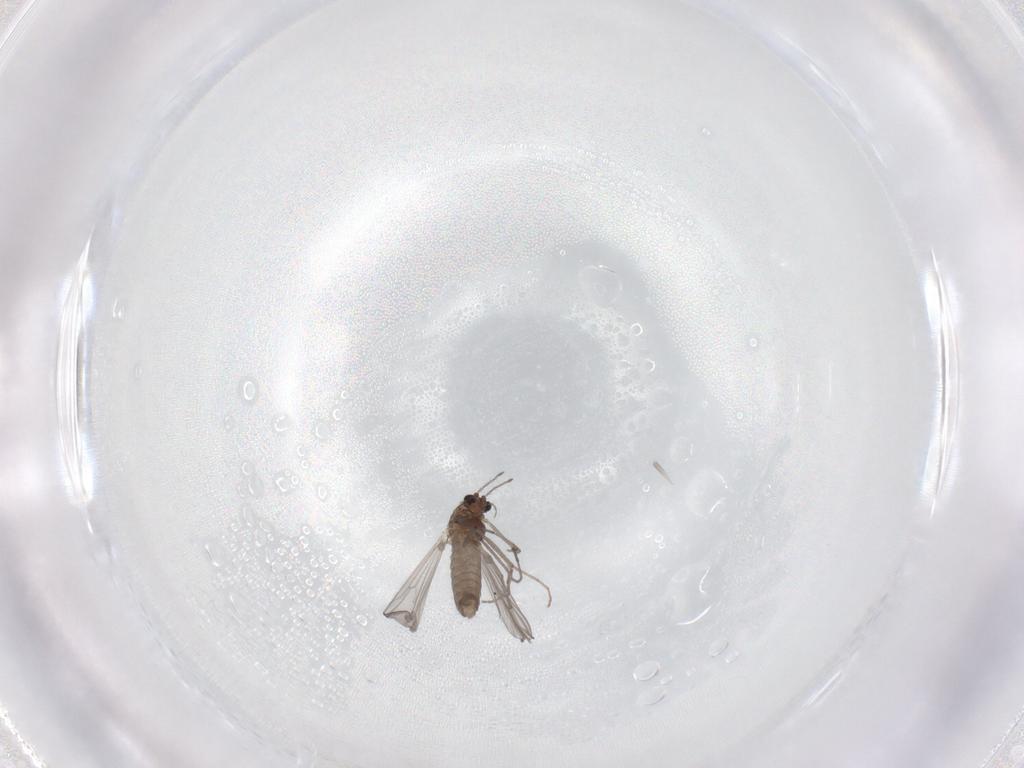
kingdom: Animalia
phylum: Arthropoda
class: Insecta
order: Diptera
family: Chironomidae
